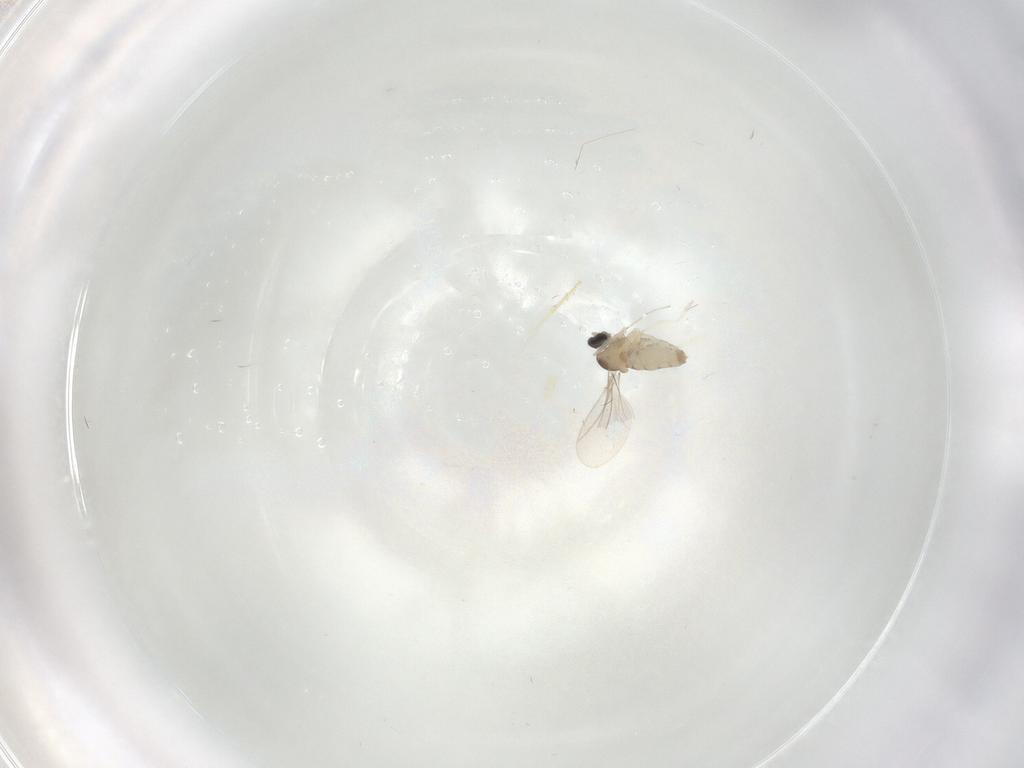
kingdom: Animalia
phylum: Arthropoda
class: Insecta
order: Diptera
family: Cecidomyiidae
